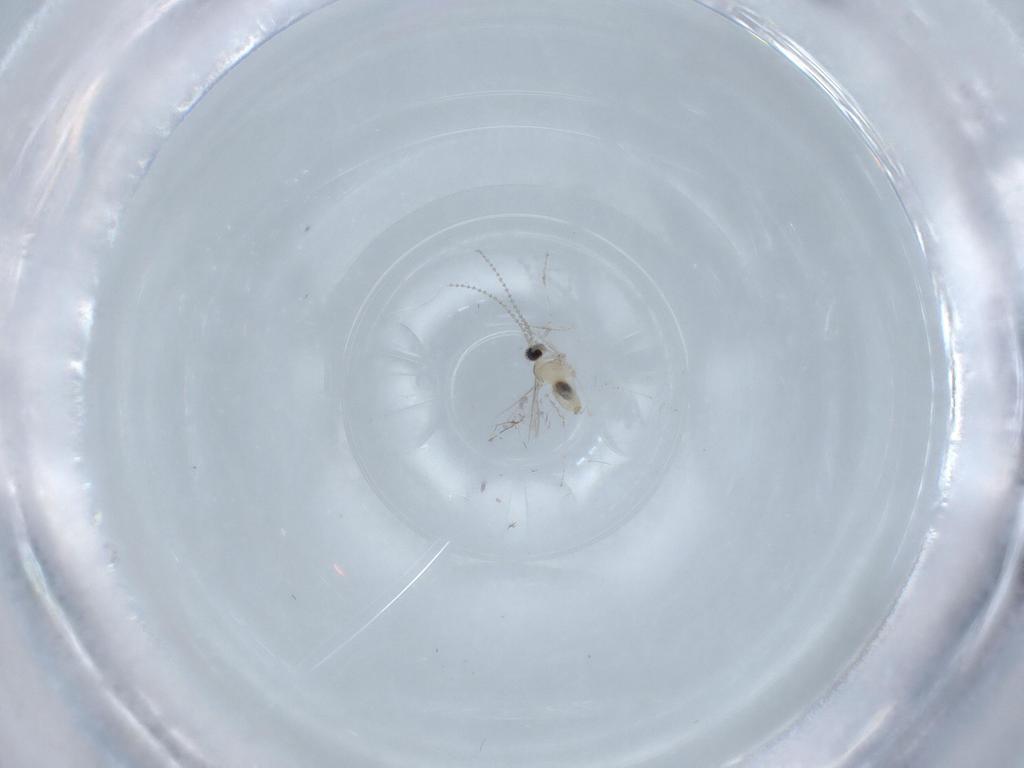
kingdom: Animalia
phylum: Arthropoda
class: Insecta
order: Diptera
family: Cecidomyiidae
